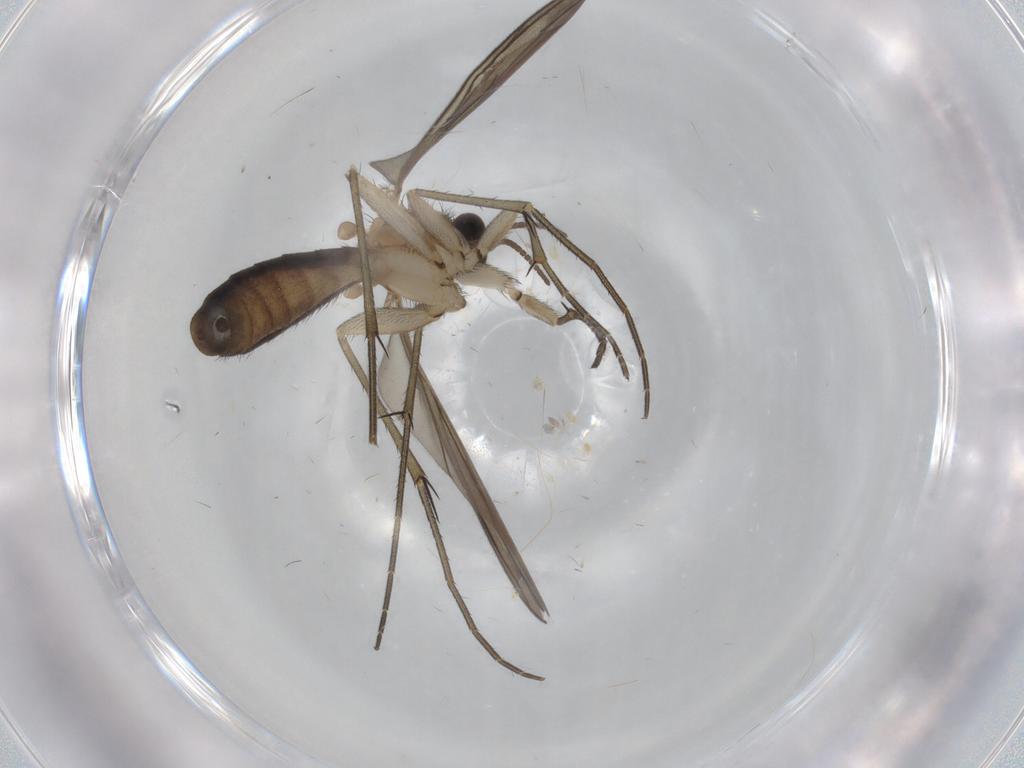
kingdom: Animalia
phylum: Arthropoda
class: Insecta
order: Diptera
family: Keroplatidae
